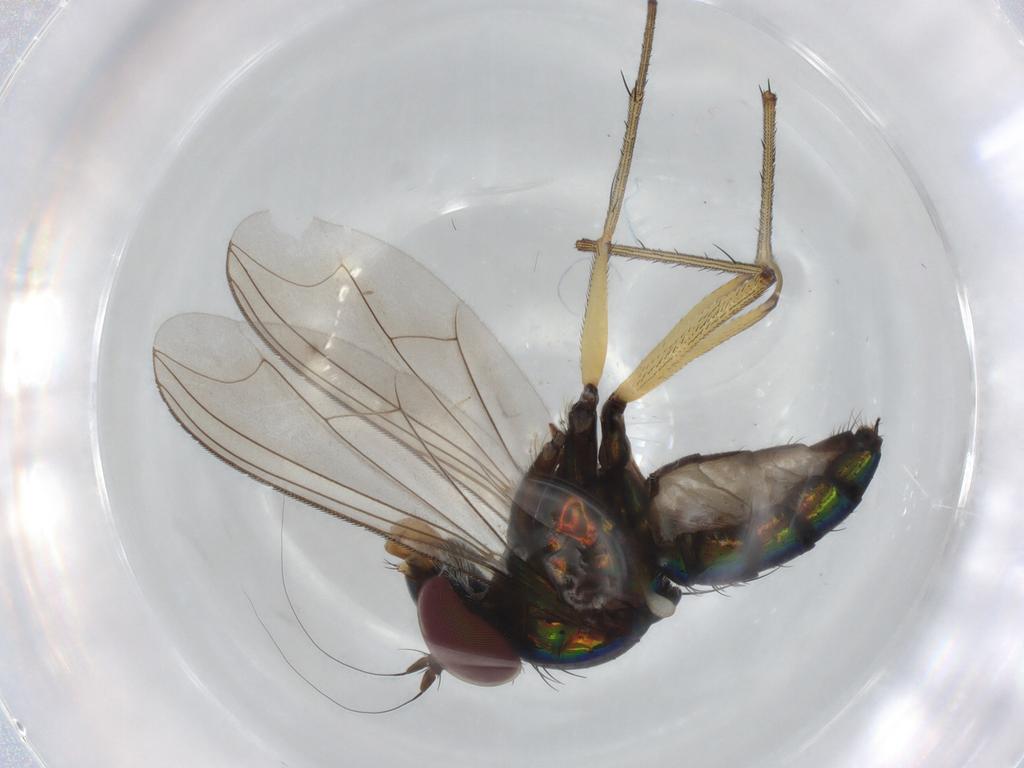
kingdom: Animalia
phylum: Arthropoda
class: Insecta
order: Diptera
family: Dolichopodidae
